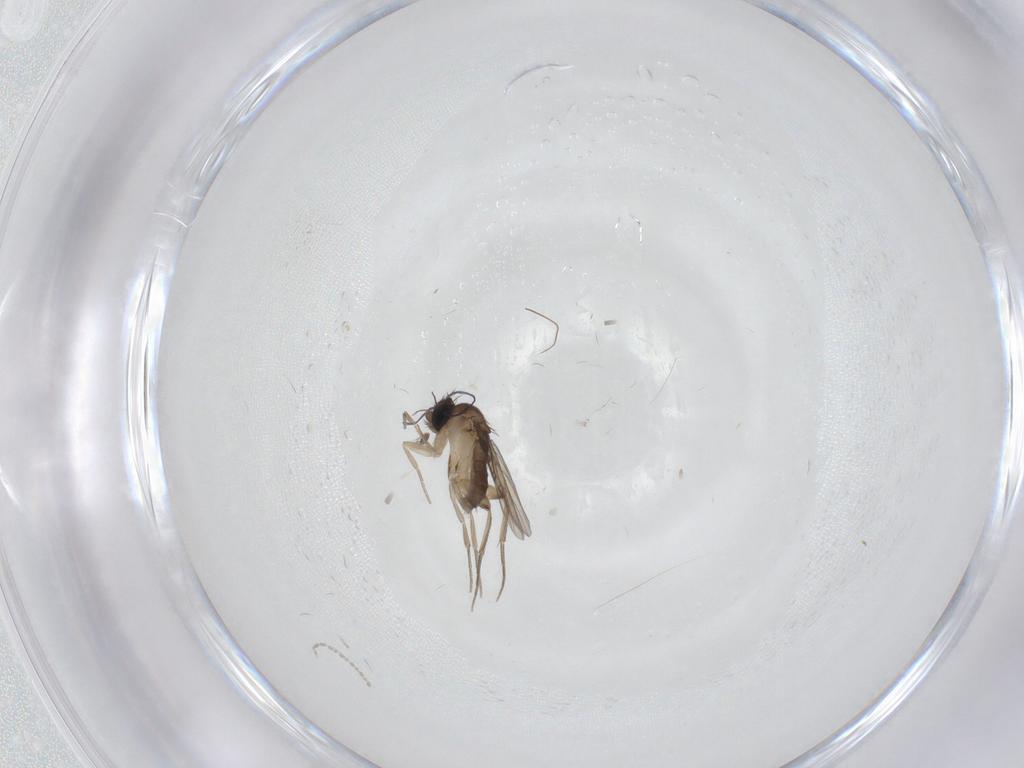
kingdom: Animalia
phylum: Arthropoda
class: Insecta
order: Diptera
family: Phoridae
